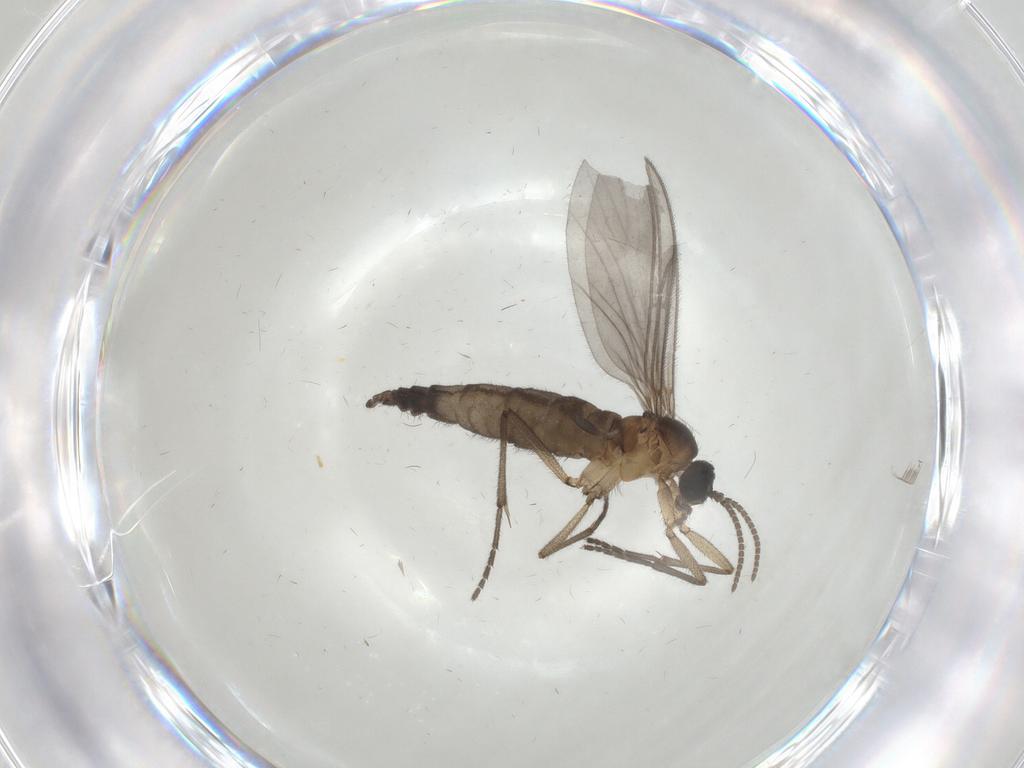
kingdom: Animalia
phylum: Arthropoda
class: Insecta
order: Diptera
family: Sciaridae
